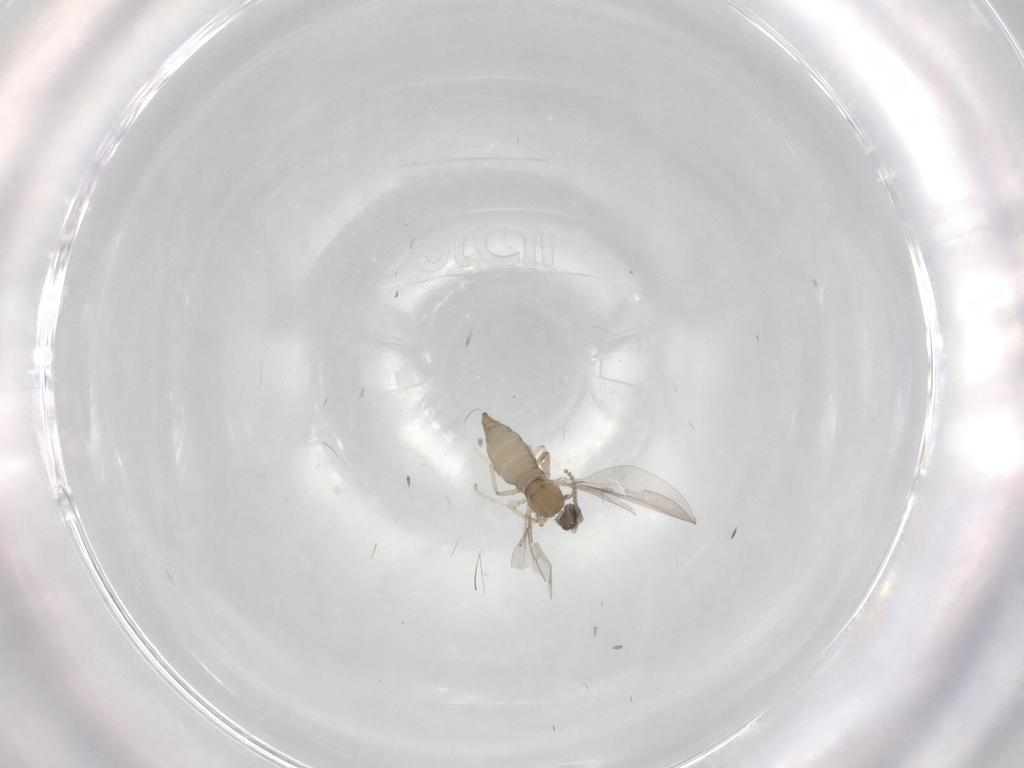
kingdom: Animalia
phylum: Arthropoda
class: Insecta
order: Diptera
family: Cecidomyiidae
